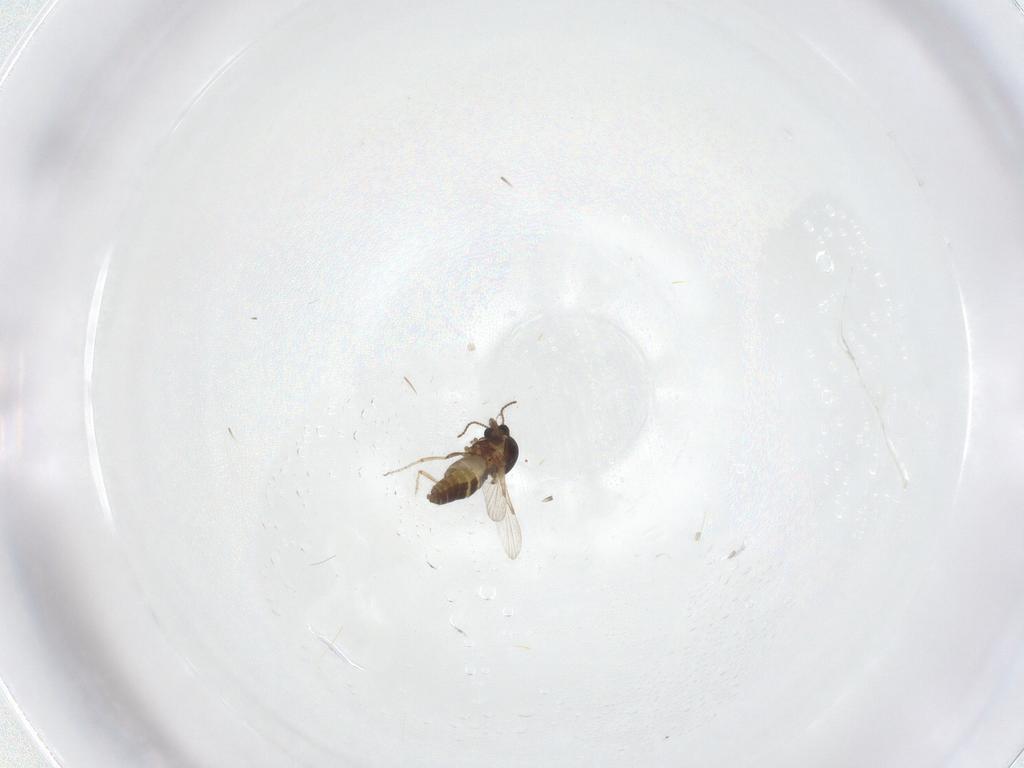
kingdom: Animalia
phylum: Arthropoda
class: Insecta
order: Diptera
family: Ceratopogonidae
